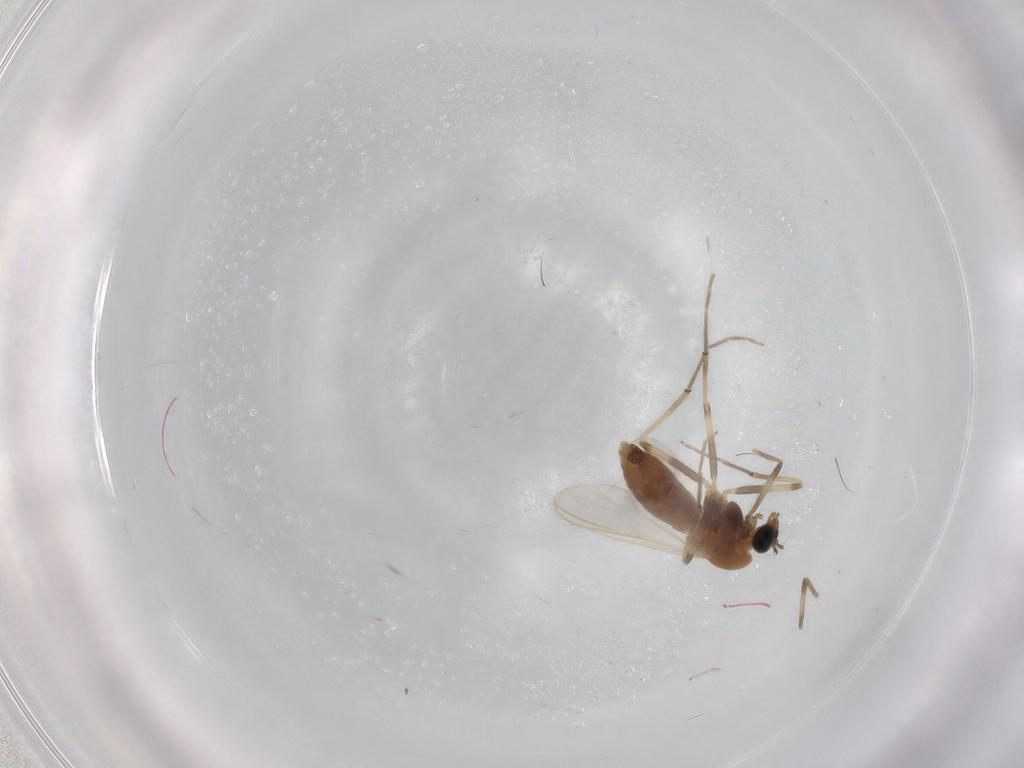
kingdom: Animalia
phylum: Arthropoda
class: Insecta
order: Diptera
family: Chironomidae
